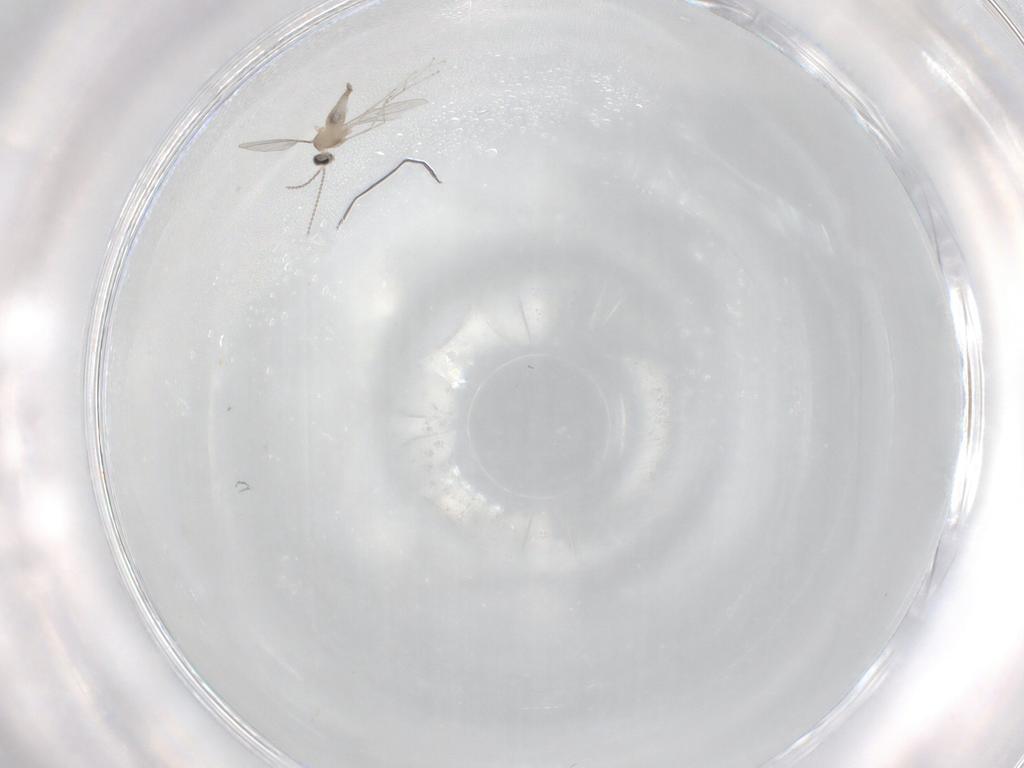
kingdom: Animalia
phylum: Arthropoda
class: Insecta
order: Diptera
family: Cecidomyiidae
